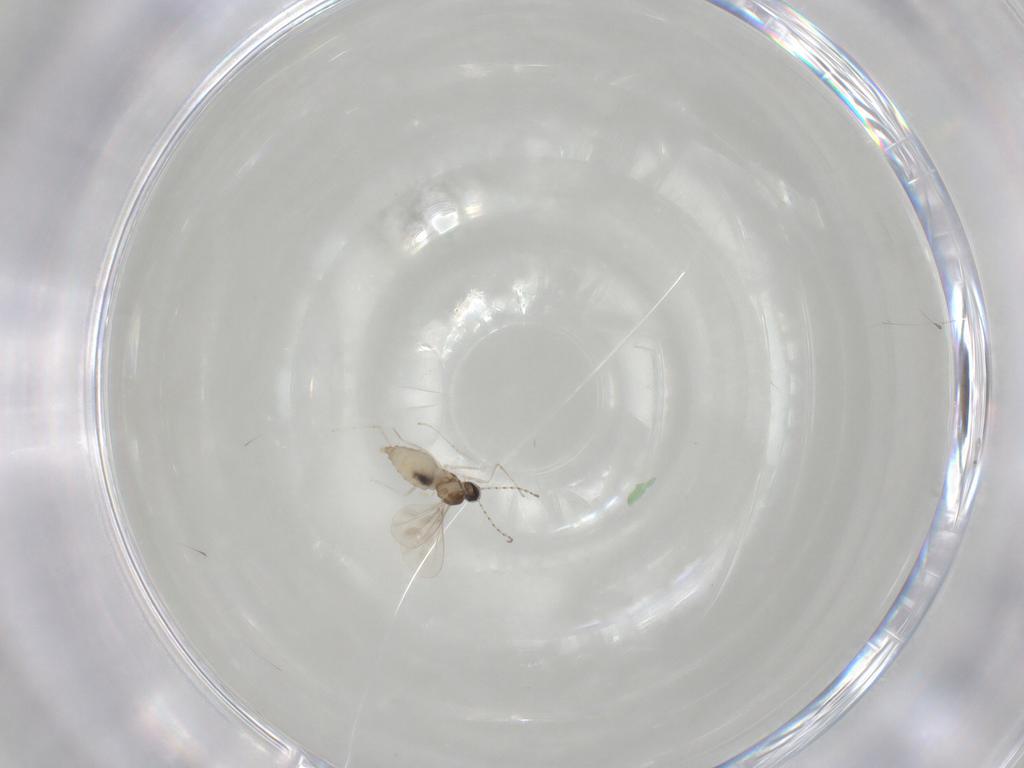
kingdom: Animalia
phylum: Arthropoda
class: Insecta
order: Diptera
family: Cecidomyiidae
